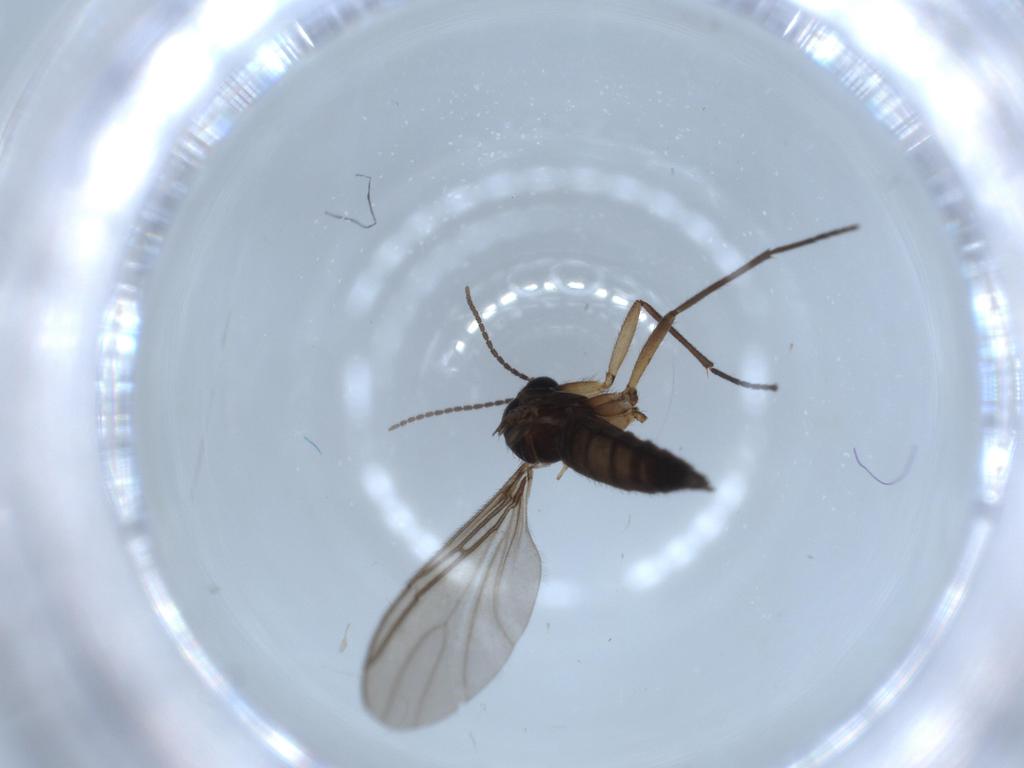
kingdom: Animalia
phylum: Arthropoda
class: Insecta
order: Diptera
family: Sciaridae
